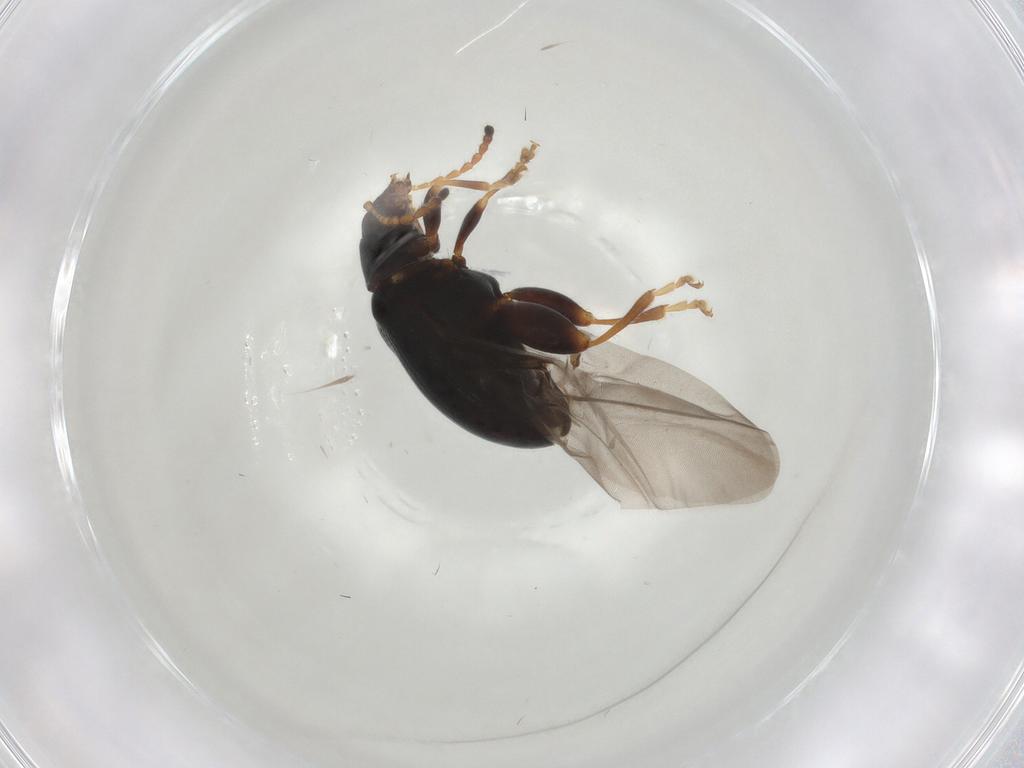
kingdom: Animalia
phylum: Arthropoda
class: Insecta
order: Coleoptera
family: Chrysomelidae
